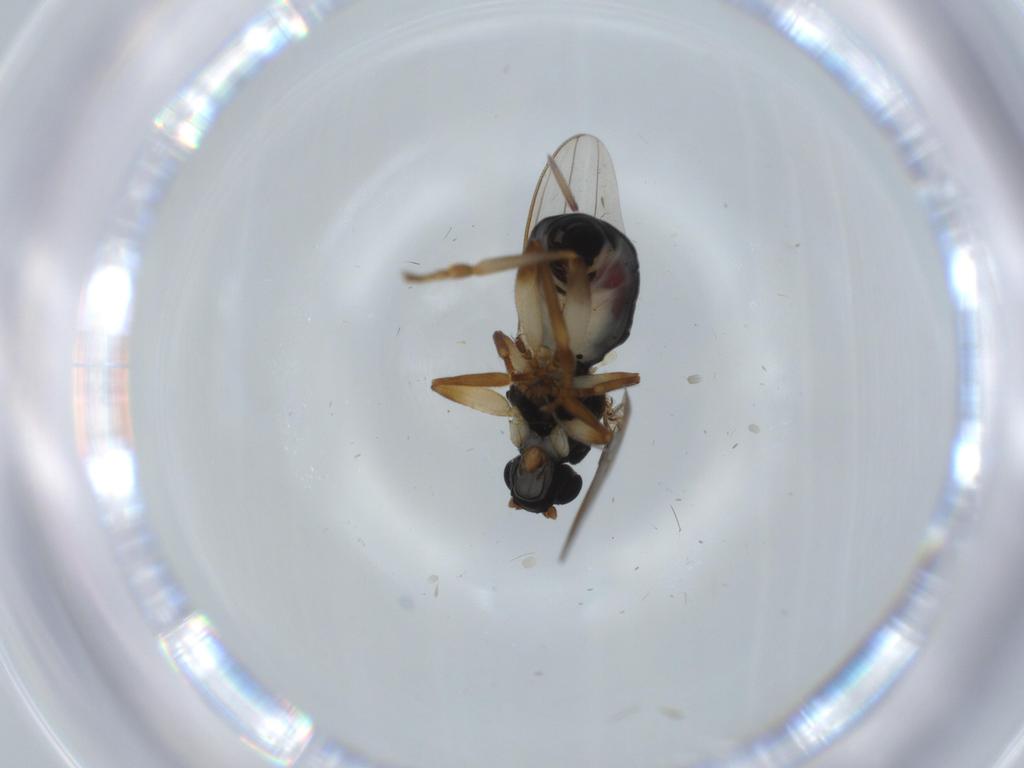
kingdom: Animalia
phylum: Arthropoda
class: Insecta
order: Diptera
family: Sphaeroceridae
